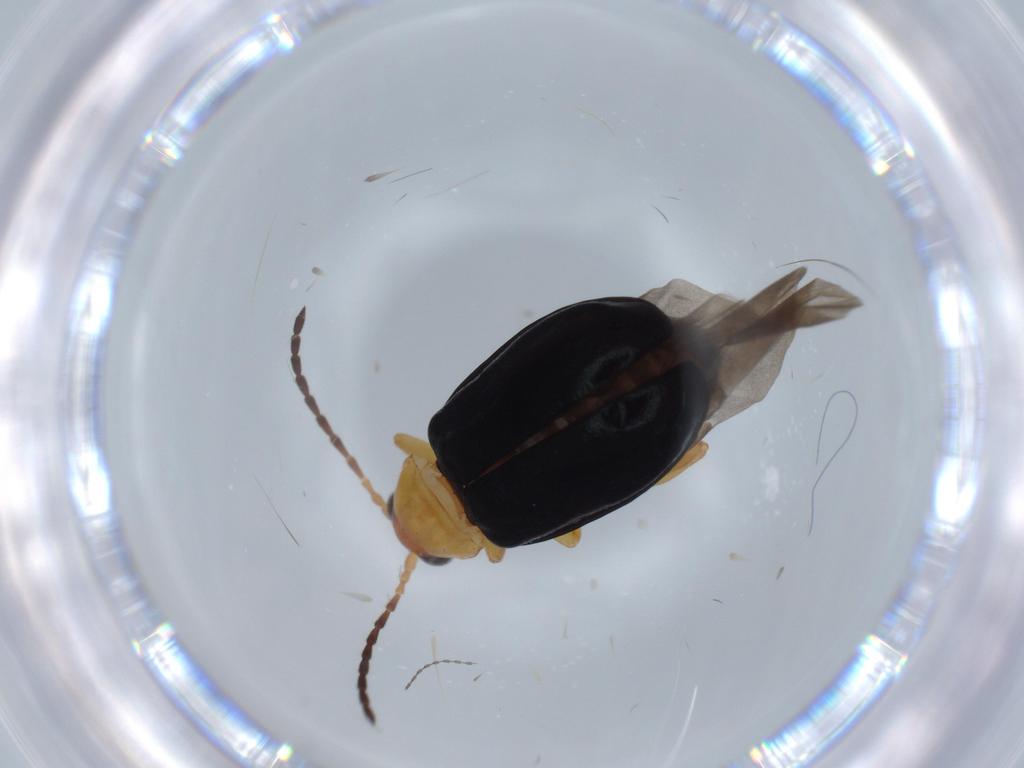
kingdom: Animalia
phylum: Arthropoda
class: Insecta
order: Coleoptera
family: Chrysomelidae
